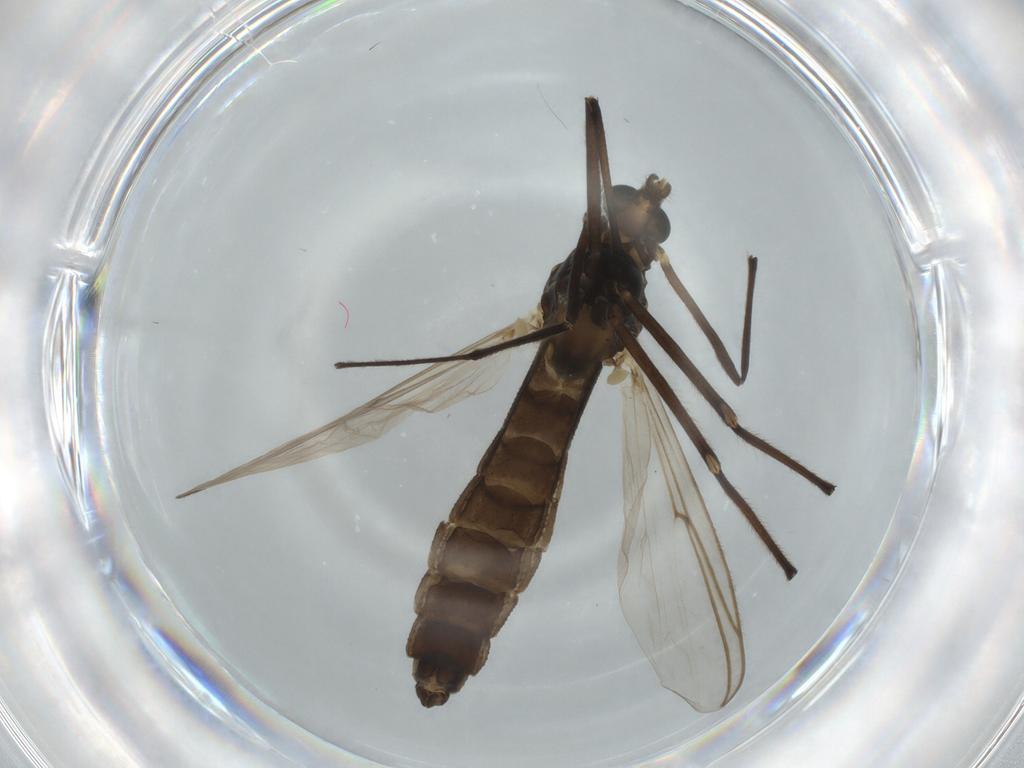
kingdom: Animalia
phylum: Arthropoda
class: Insecta
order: Diptera
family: Chironomidae
